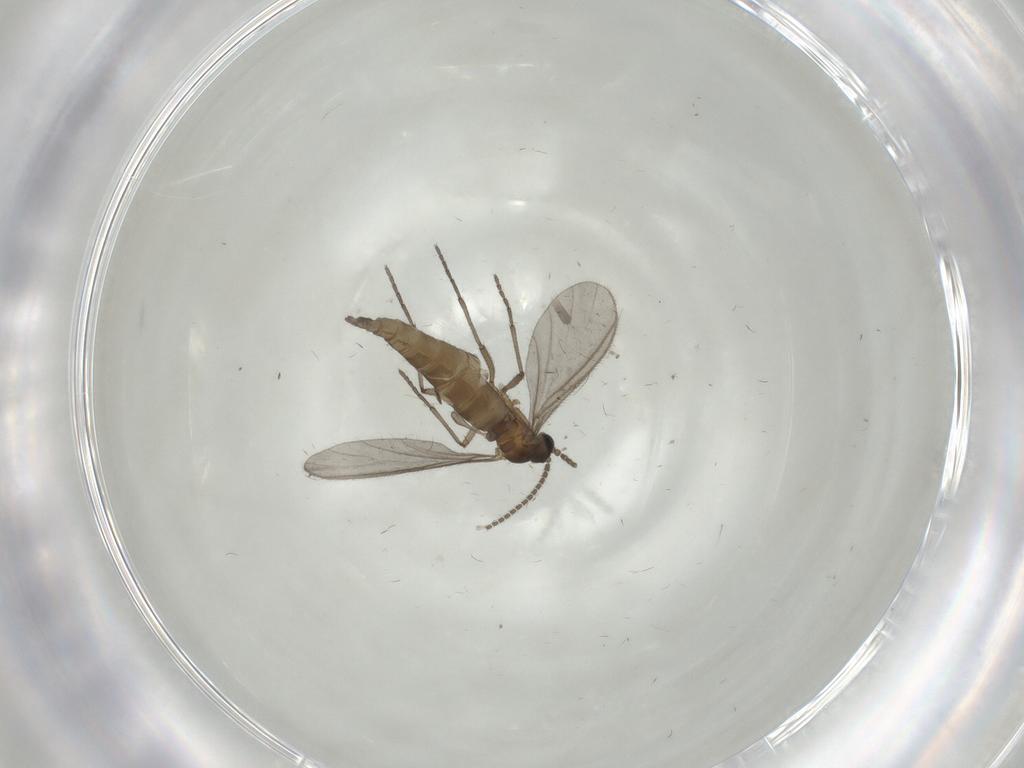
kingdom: Animalia
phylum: Arthropoda
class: Insecta
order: Diptera
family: Sciaridae
